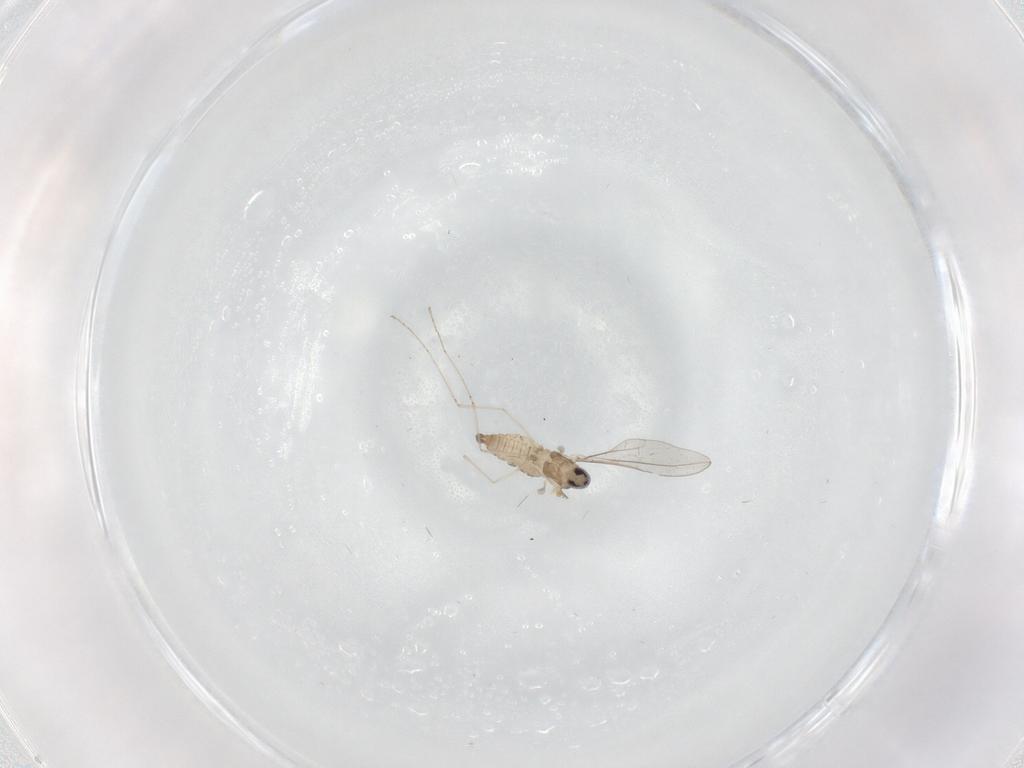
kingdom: Animalia
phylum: Arthropoda
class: Insecta
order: Diptera
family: Cecidomyiidae
